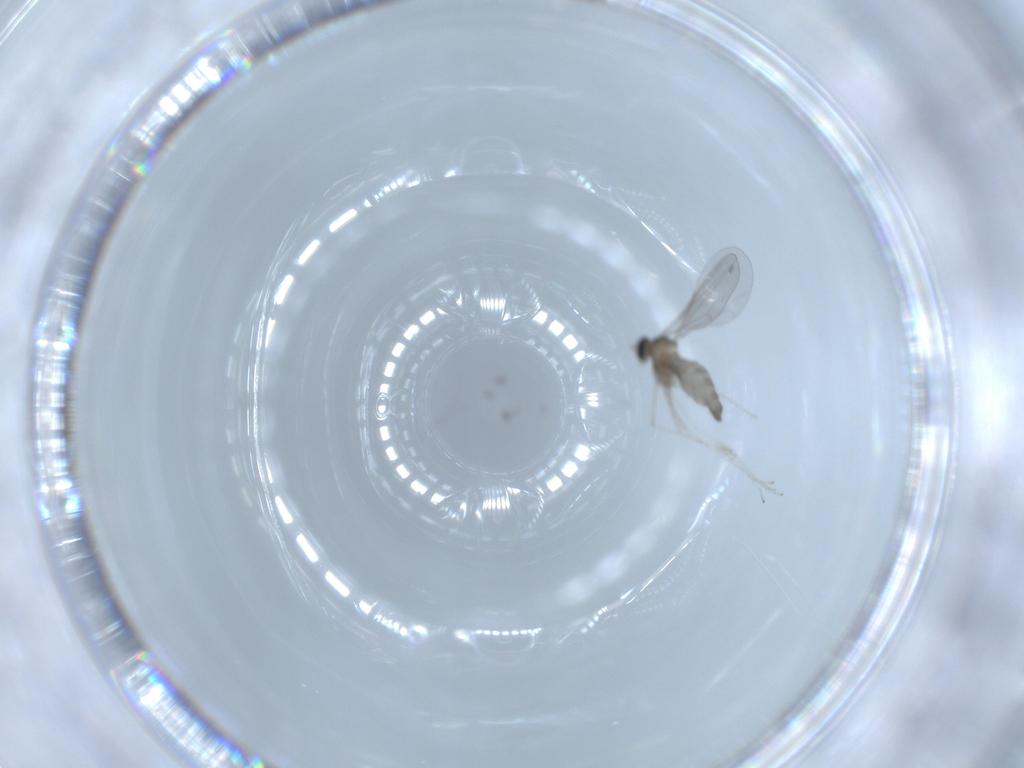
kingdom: Animalia
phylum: Arthropoda
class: Insecta
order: Diptera
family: Cecidomyiidae
